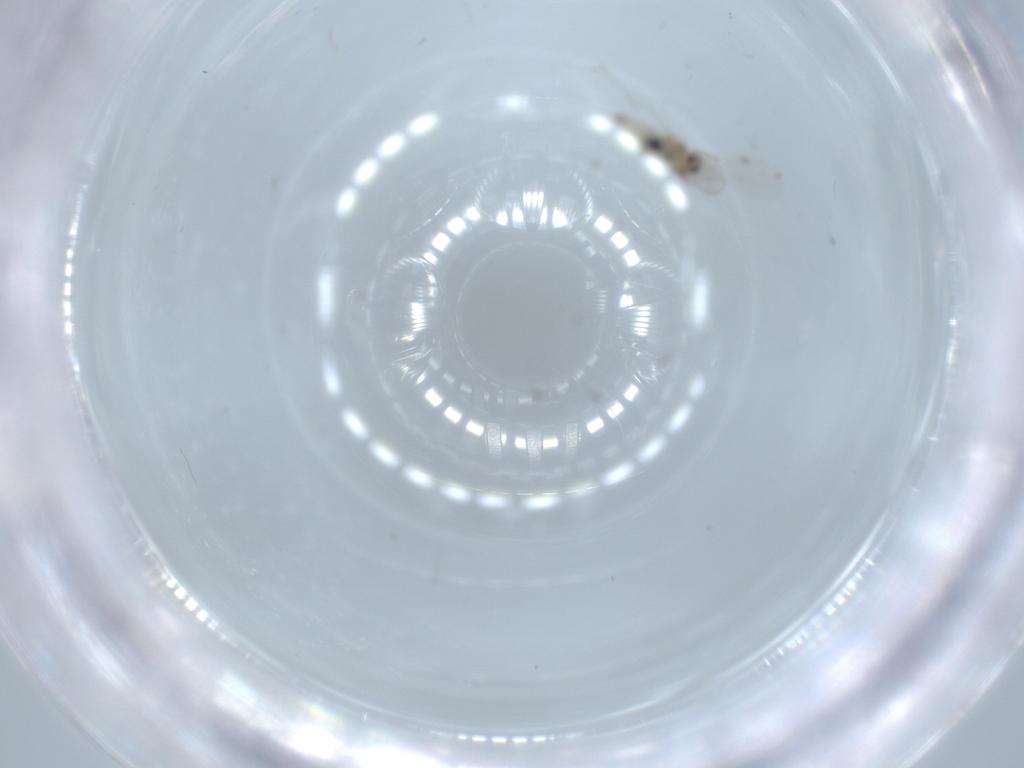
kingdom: Animalia
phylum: Arthropoda
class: Insecta
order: Diptera
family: Cecidomyiidae
